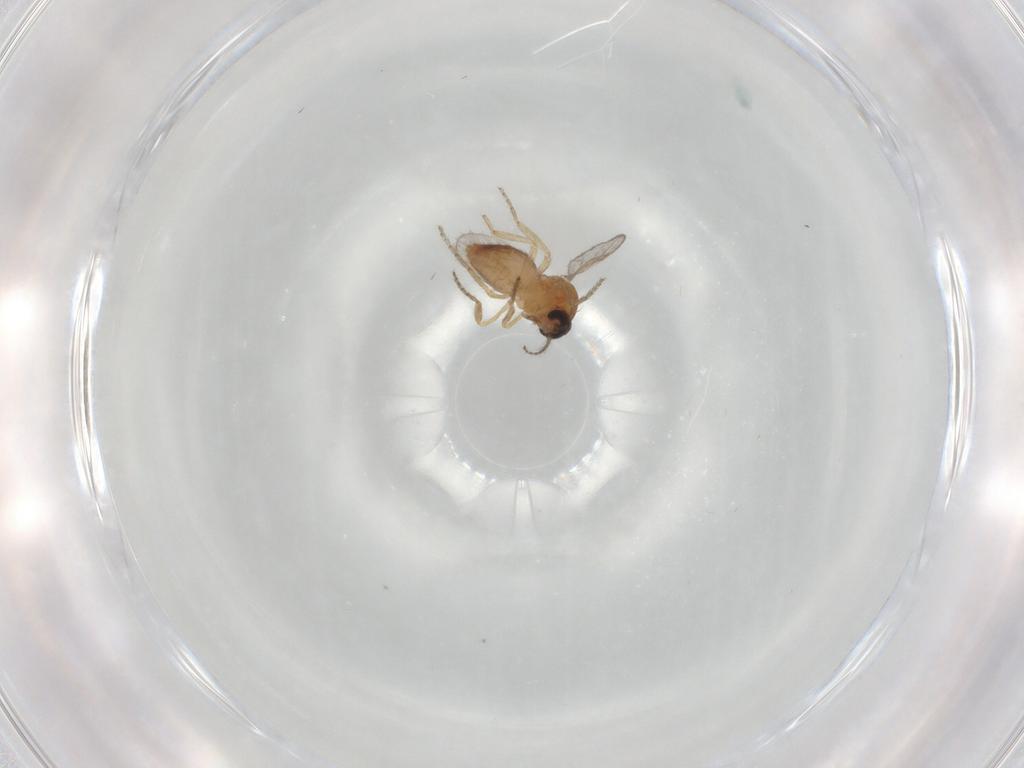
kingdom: Animalia
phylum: Arthropoda
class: Insecta
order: Diptera
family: Ceratopogonidae
